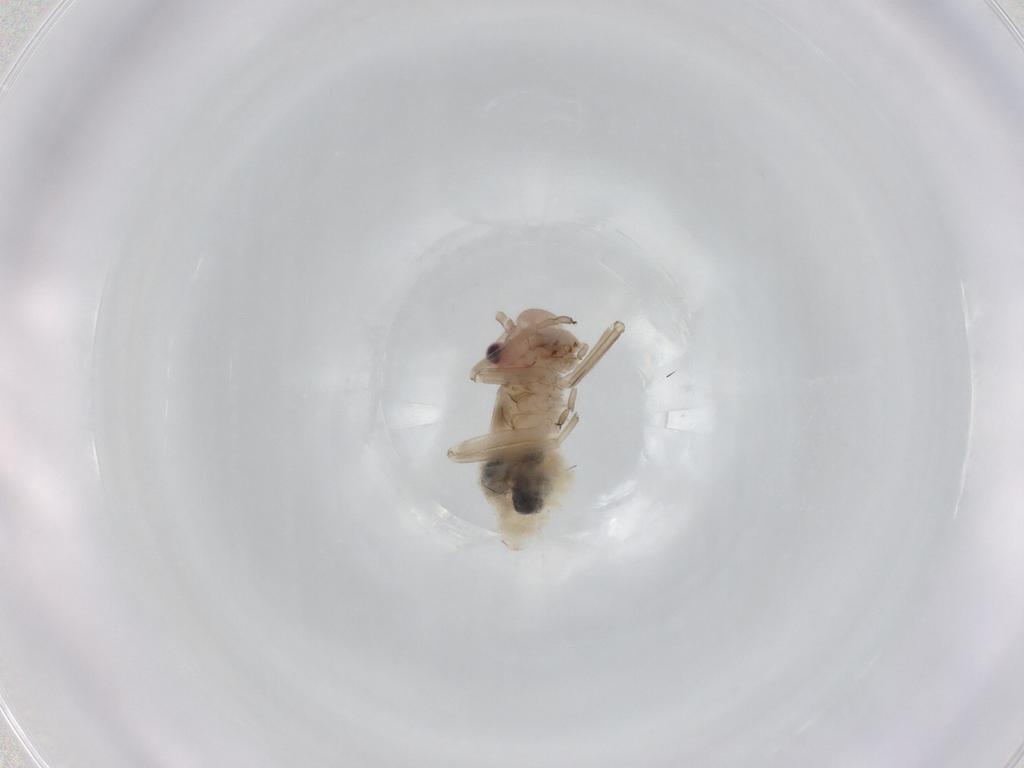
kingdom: Animalia
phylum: Arthropoda
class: Insecta
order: Psocodea
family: Stenopsocidae
